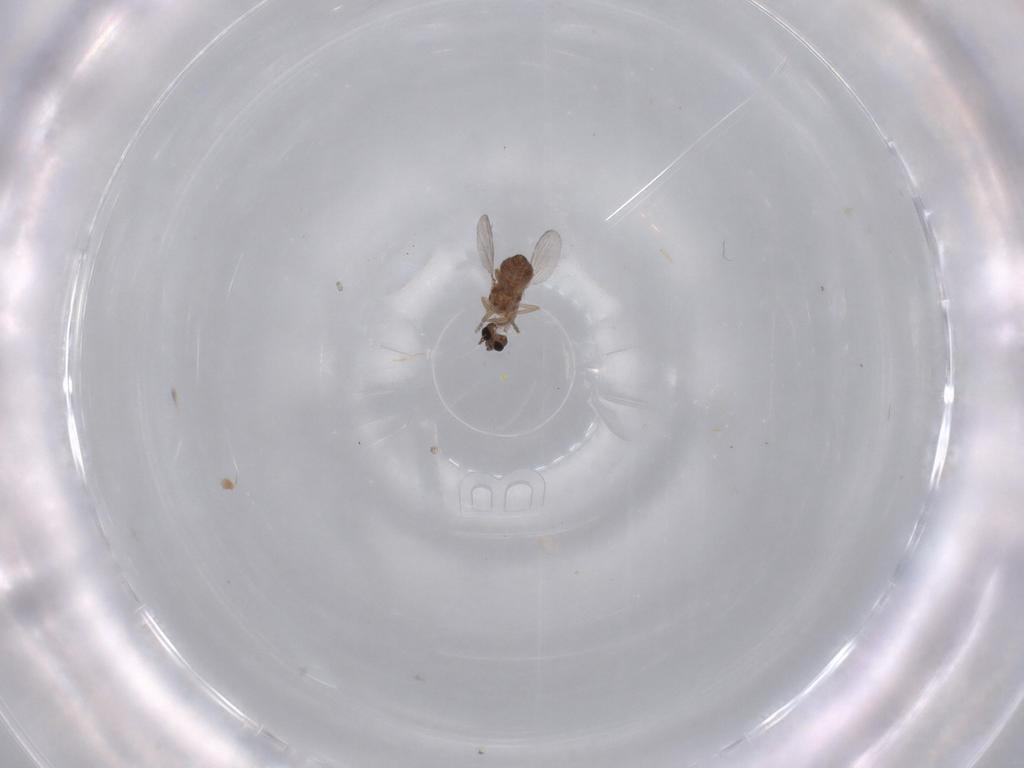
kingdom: Animalia
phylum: Arthropoda
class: Insecta
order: Diptera
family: Ceratopogonidae
